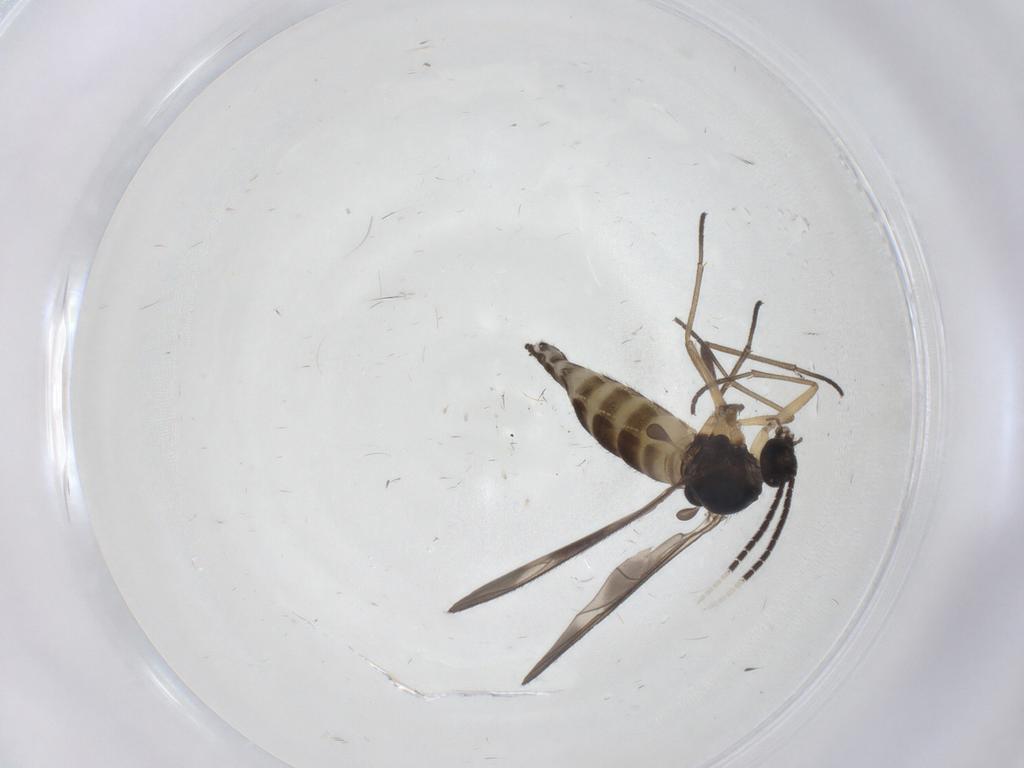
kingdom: Animalia
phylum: Arthropoda
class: Insecta
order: Diptera
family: Sciaridae
